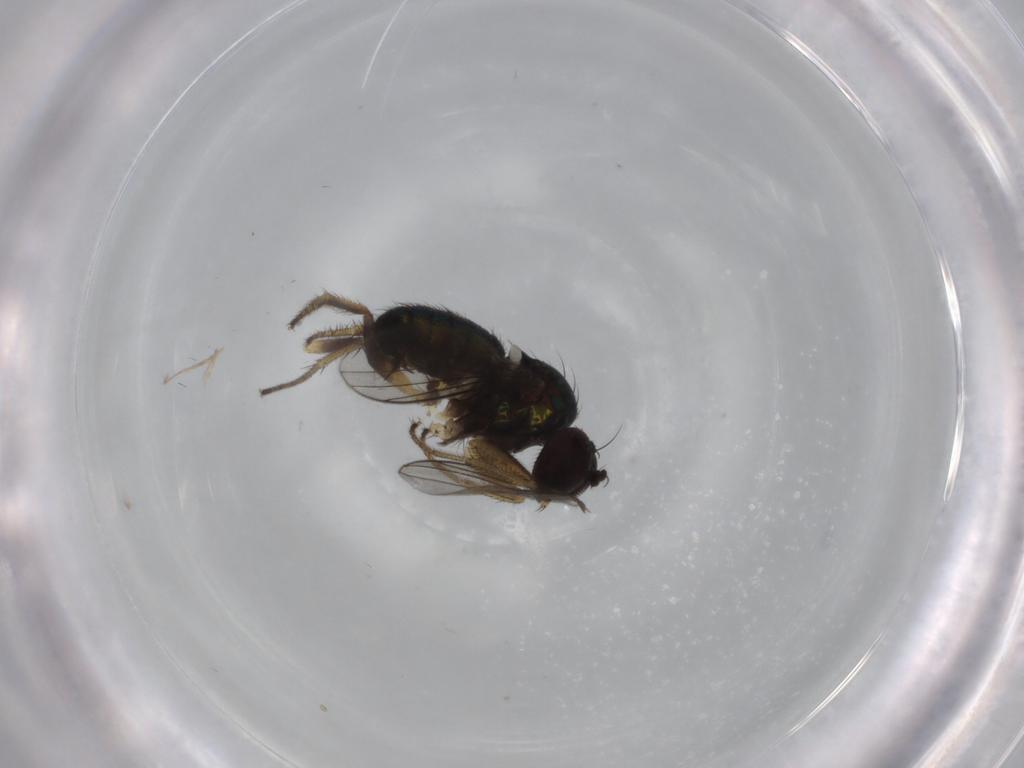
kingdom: Animalia
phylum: Arthropoda
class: Insecta
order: Diptera
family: Dolichopodidae
